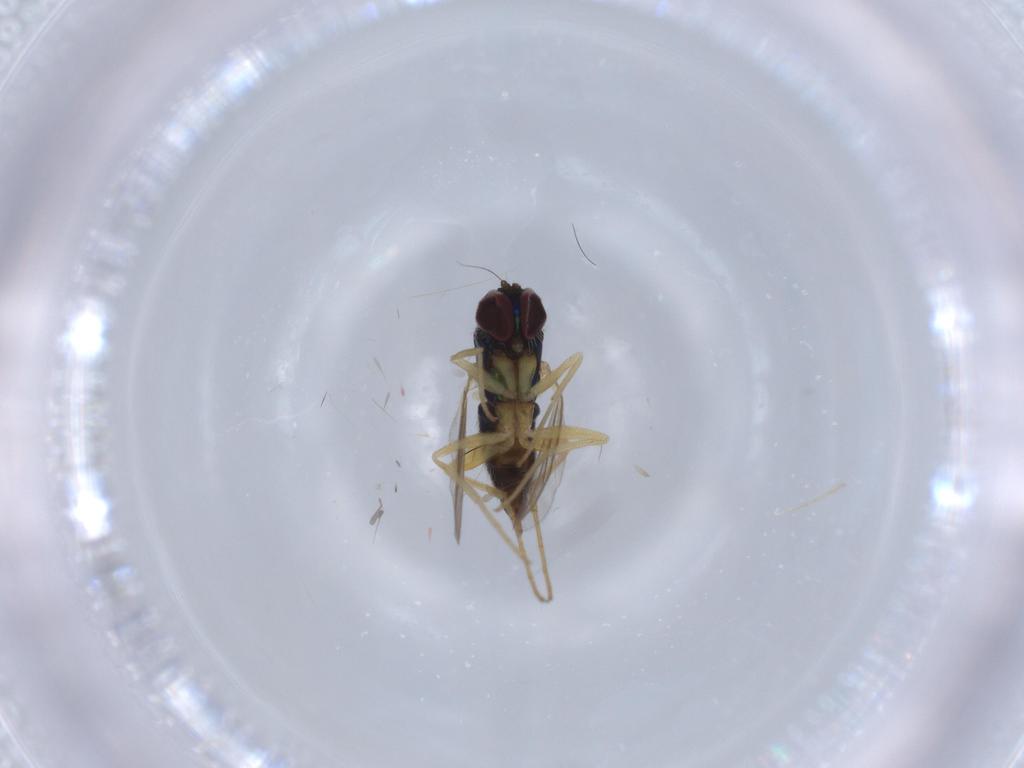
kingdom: Animalia
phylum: Arthropoda
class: Insecta
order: Diptera
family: Dolichopodidae
